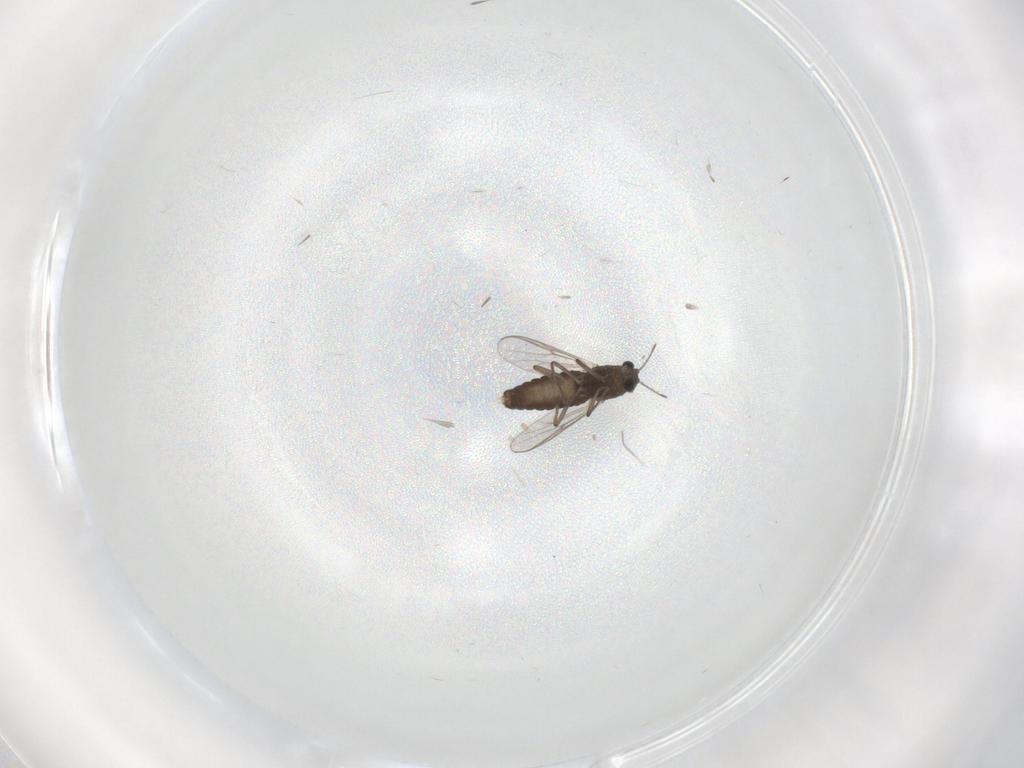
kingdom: Animalia
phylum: Arthropoda
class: Insecta
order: Diptera
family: Chironomidae
